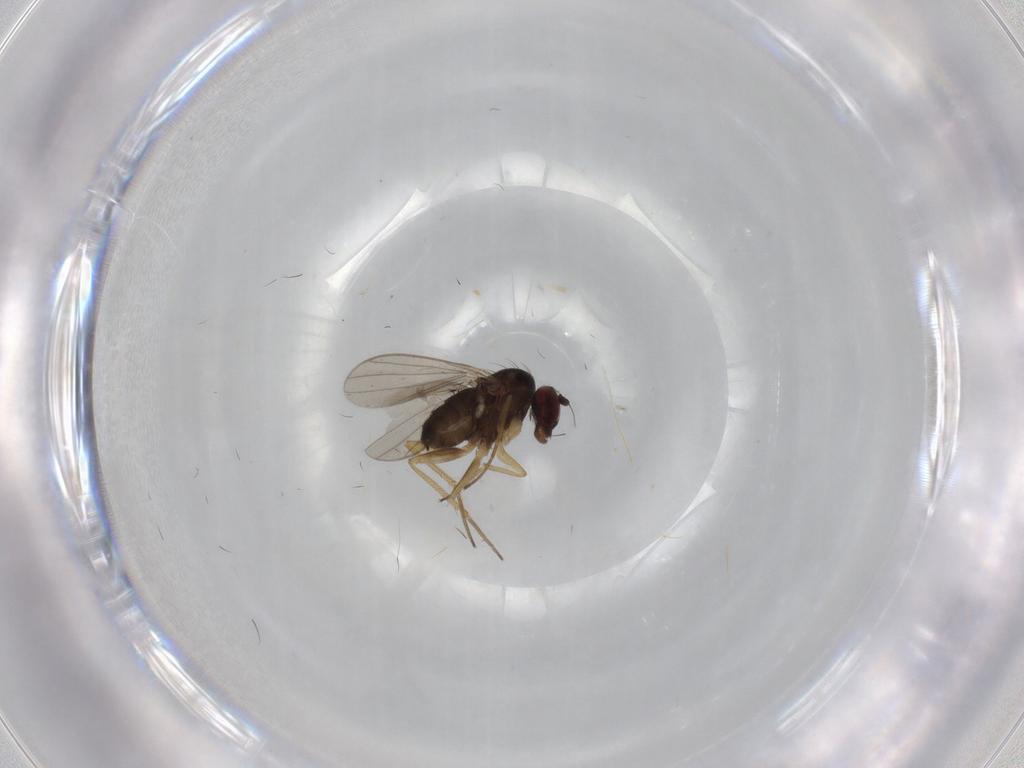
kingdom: Animalia
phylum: Arthropoda
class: Insecta
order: Diptera
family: Dolichopodidae
